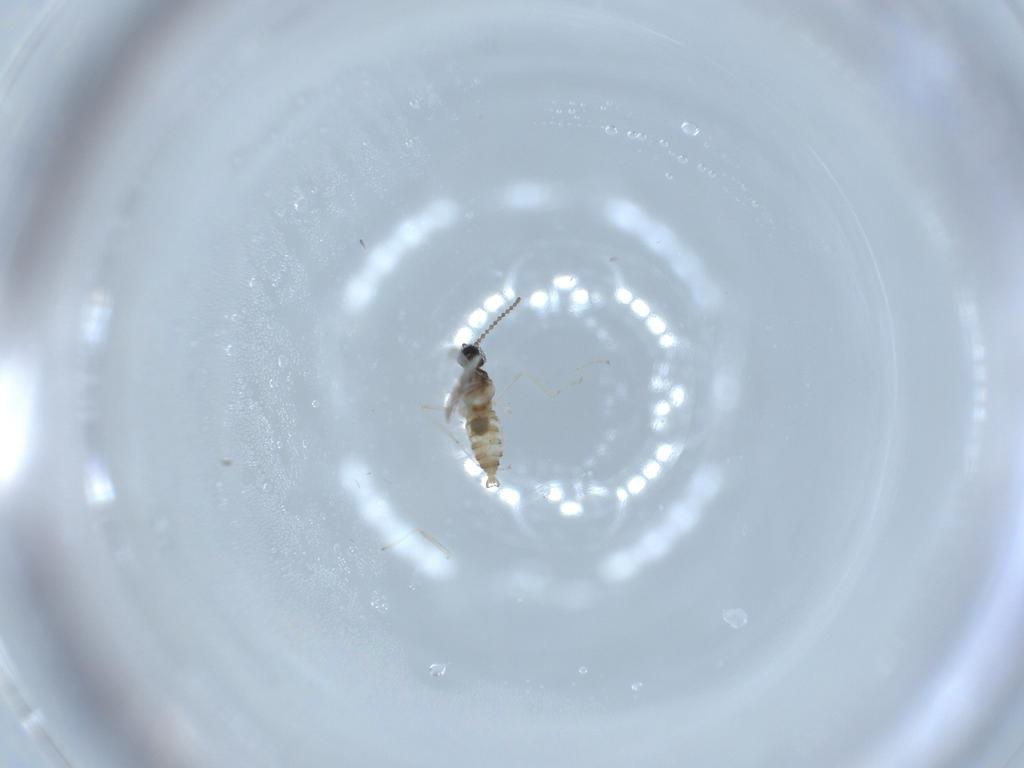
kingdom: Animalia
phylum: Arthropoda
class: Insecta
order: Diptera
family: Cecidomyiidae
